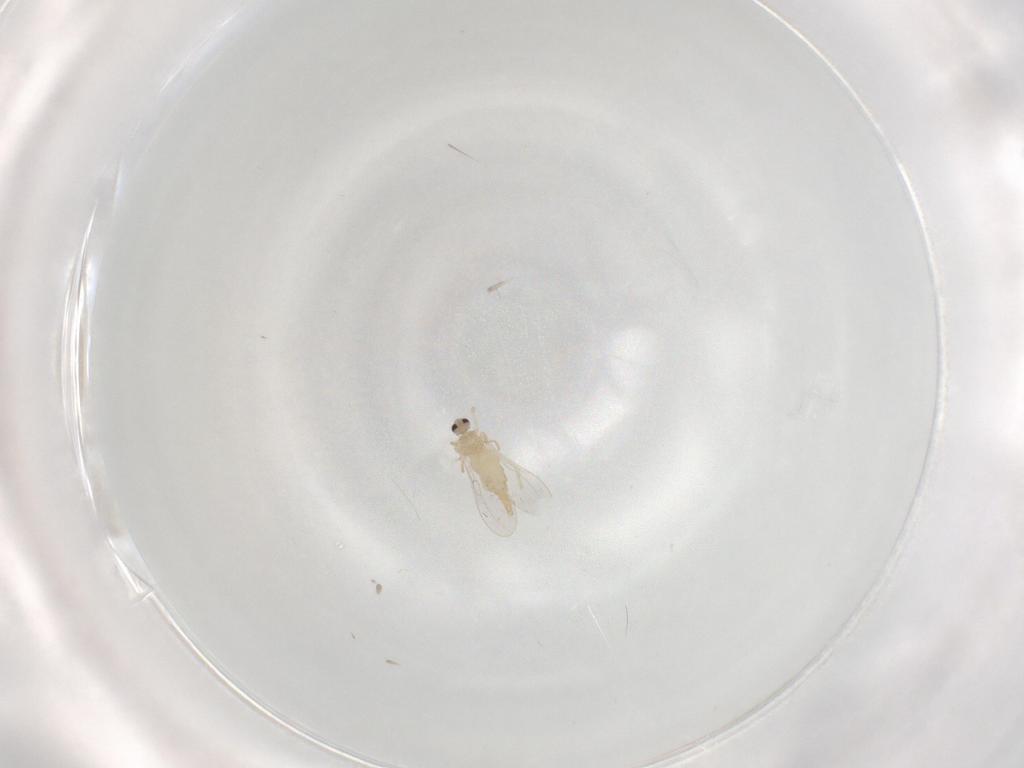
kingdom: Animalia
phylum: Arthropoda
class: Insecta
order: Diptera
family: Cecidomyiidae
